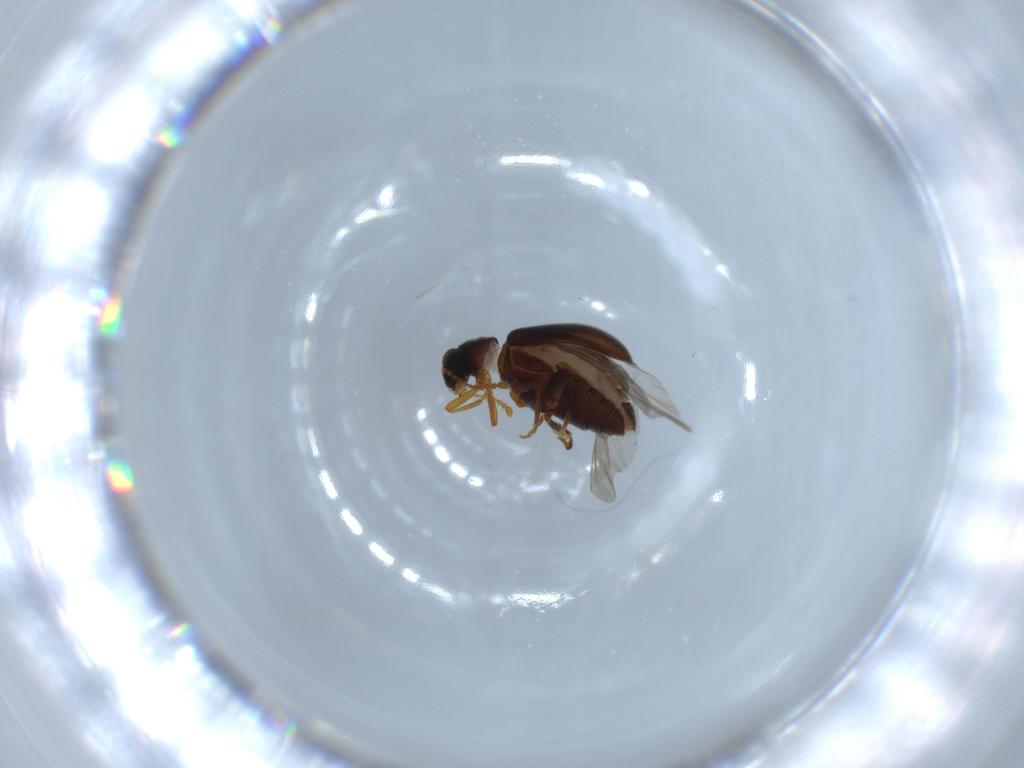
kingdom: Animalia
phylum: Arthropoda
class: Insecta
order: Coleoptera
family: Aderidae
